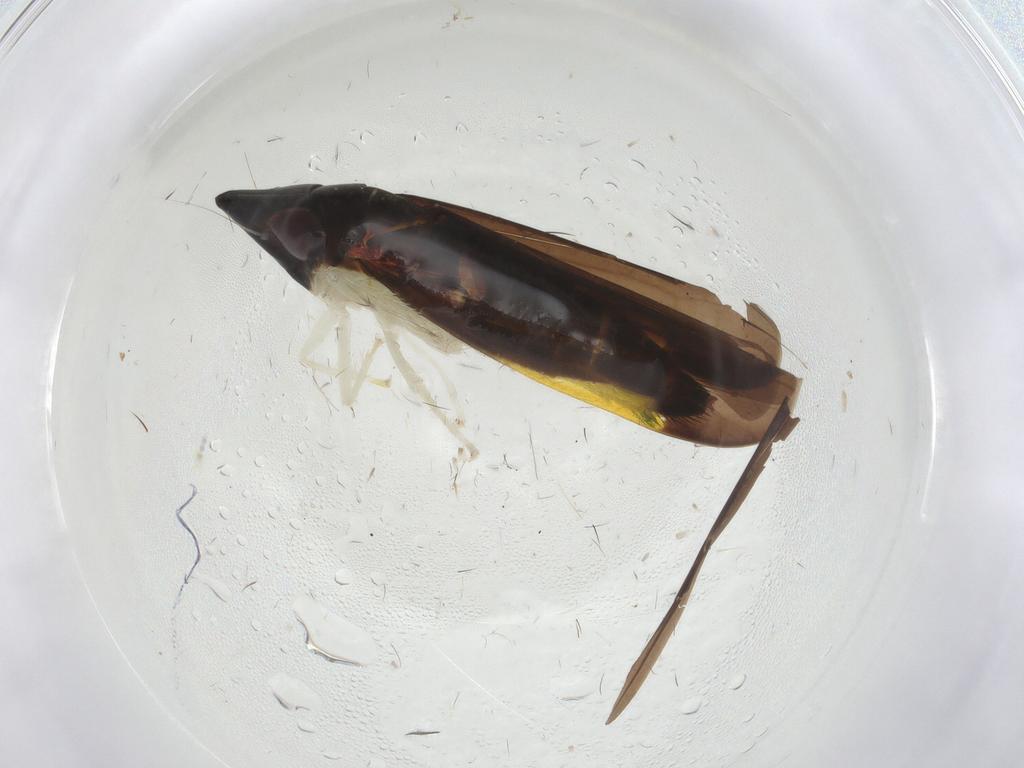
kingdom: Animalia
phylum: Arthropoda
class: Insecta
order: Hemiptera
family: Cicadellidae
